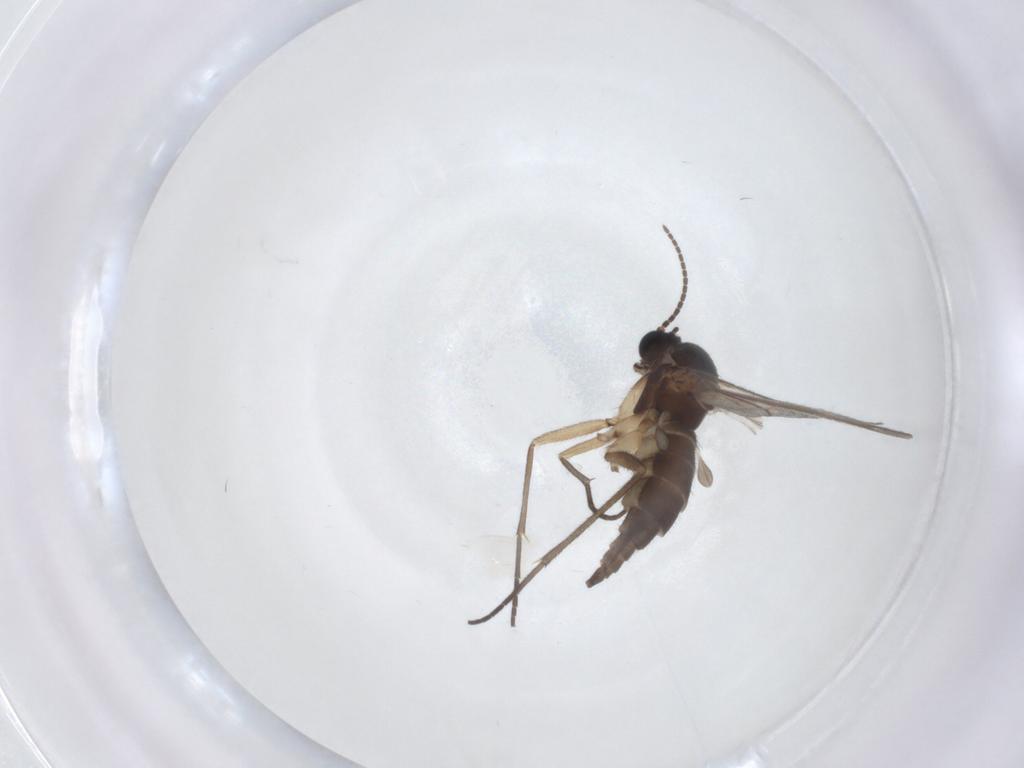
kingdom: Animalia
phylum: Arthropoda
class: Insecta
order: Diptera
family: Sciaridae
